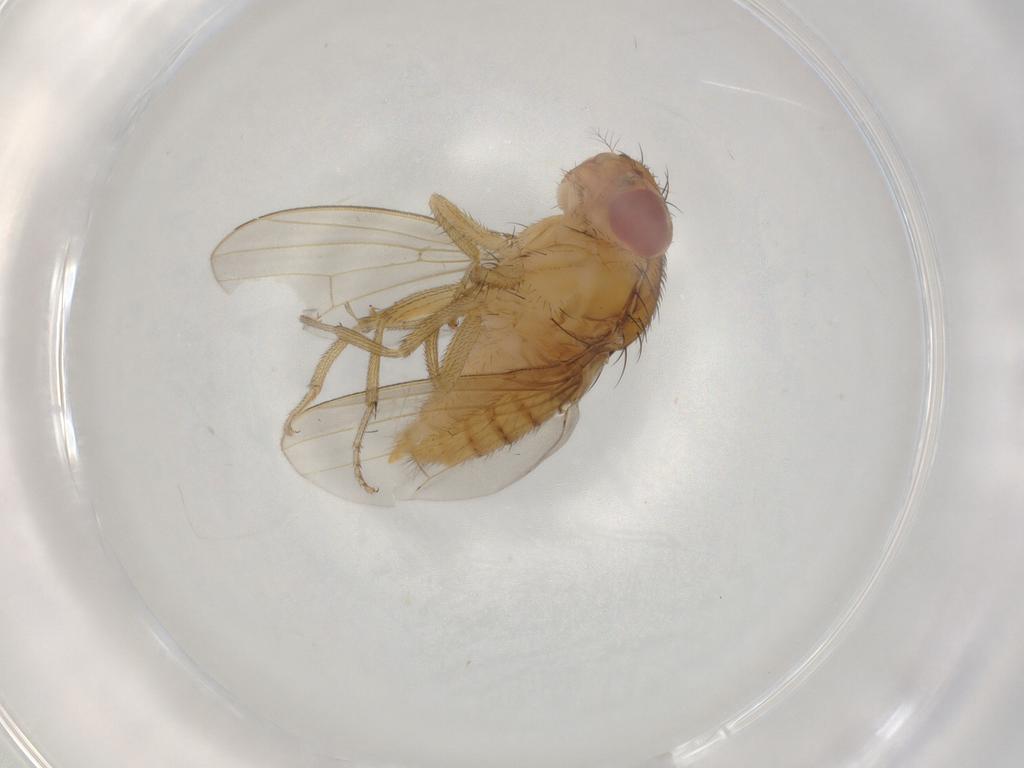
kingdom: Animalia
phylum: Arthropoda
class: Insecta
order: Diptera
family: Drosophilidae
